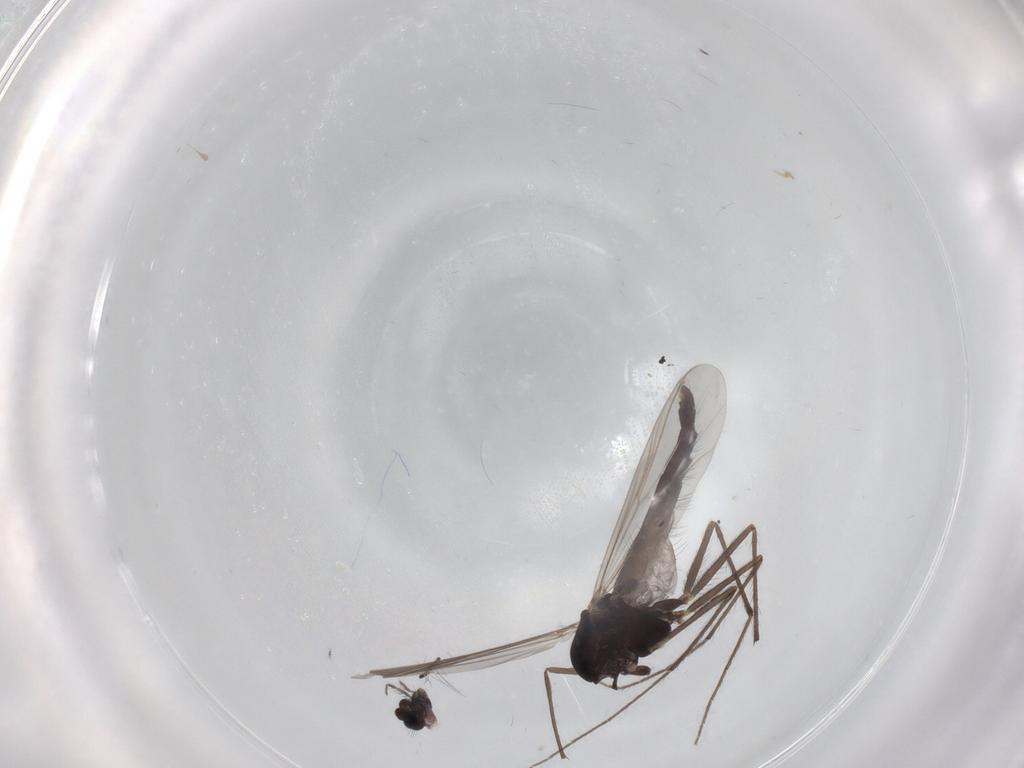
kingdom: Animalia
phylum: Arthropoda
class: Insecta
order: Diptera
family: Chironomidae
